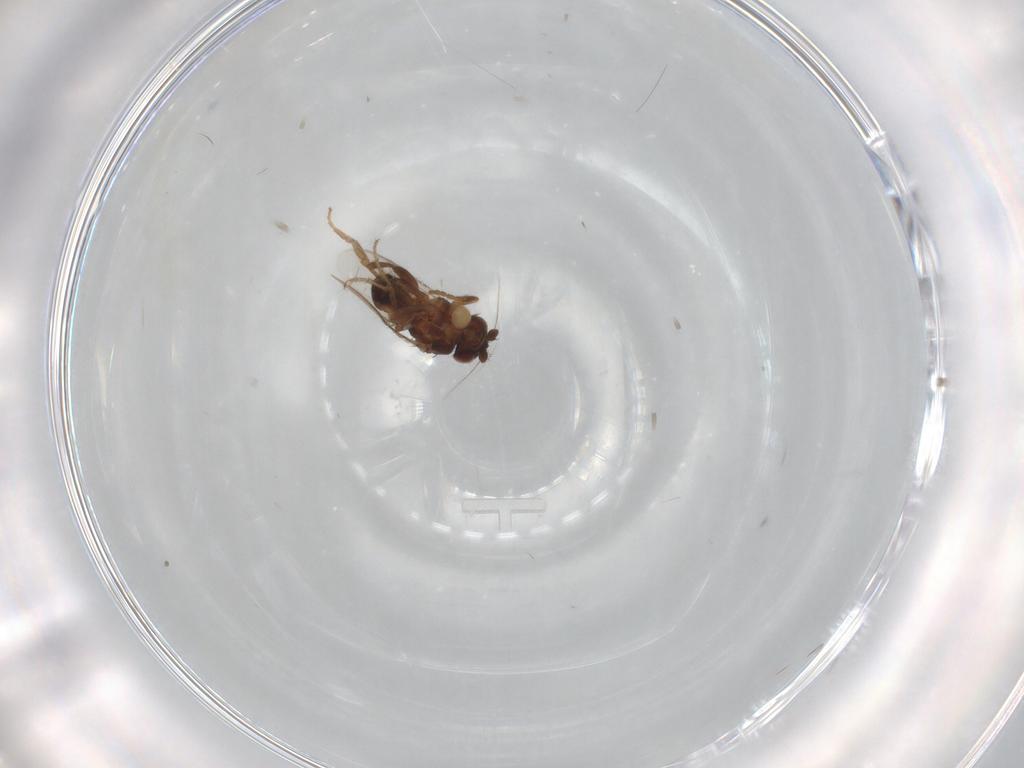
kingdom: Animalia
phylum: Arthropoda
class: Insecta
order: Diptera
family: Sphaeroceridae
